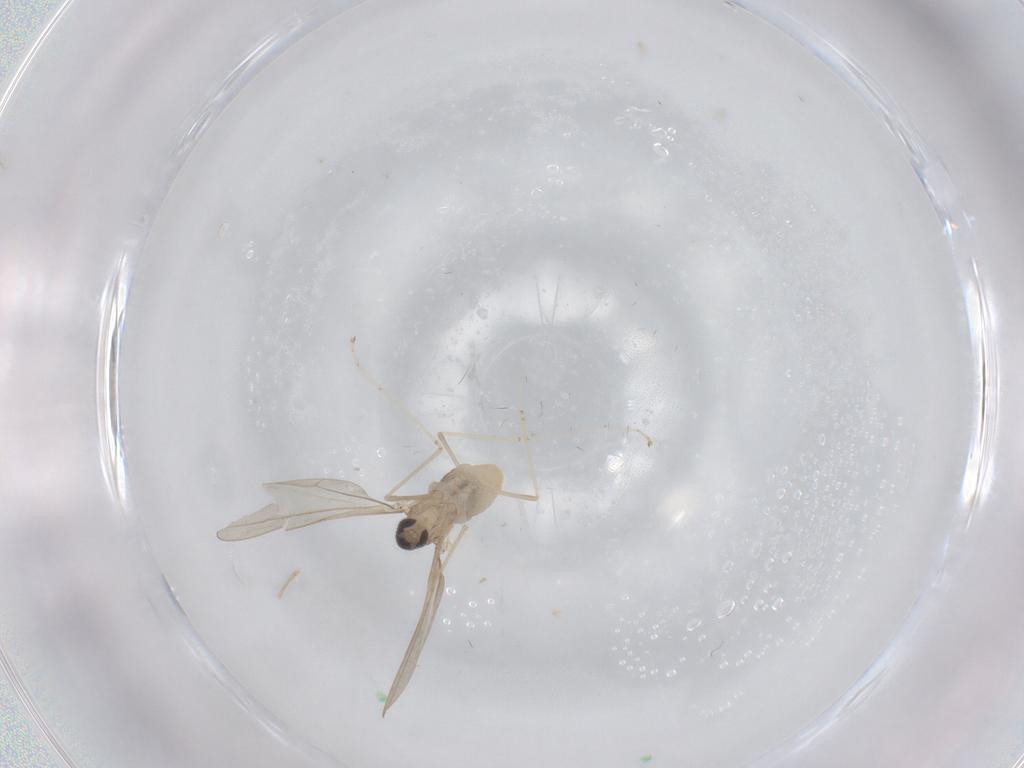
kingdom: Animalia
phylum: Arthropoda
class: Insecta
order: Diptera
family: Cecidomyiidae
